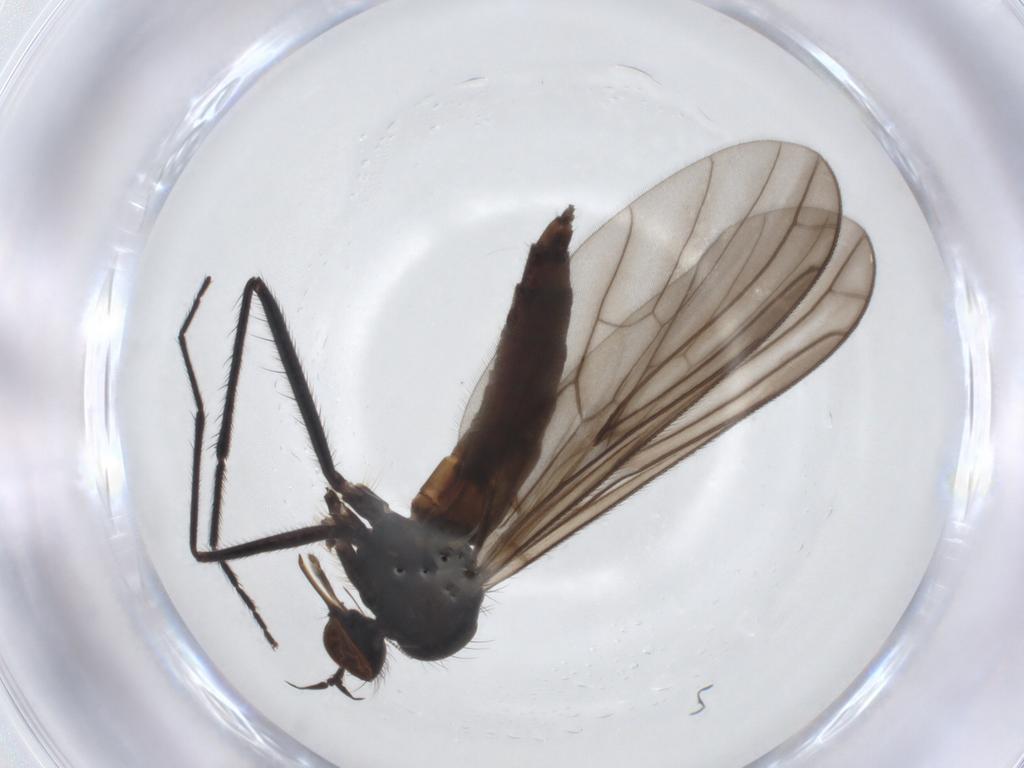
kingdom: Animalia
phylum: Arthropoda
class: Insecta
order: Diptera
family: Empididae
